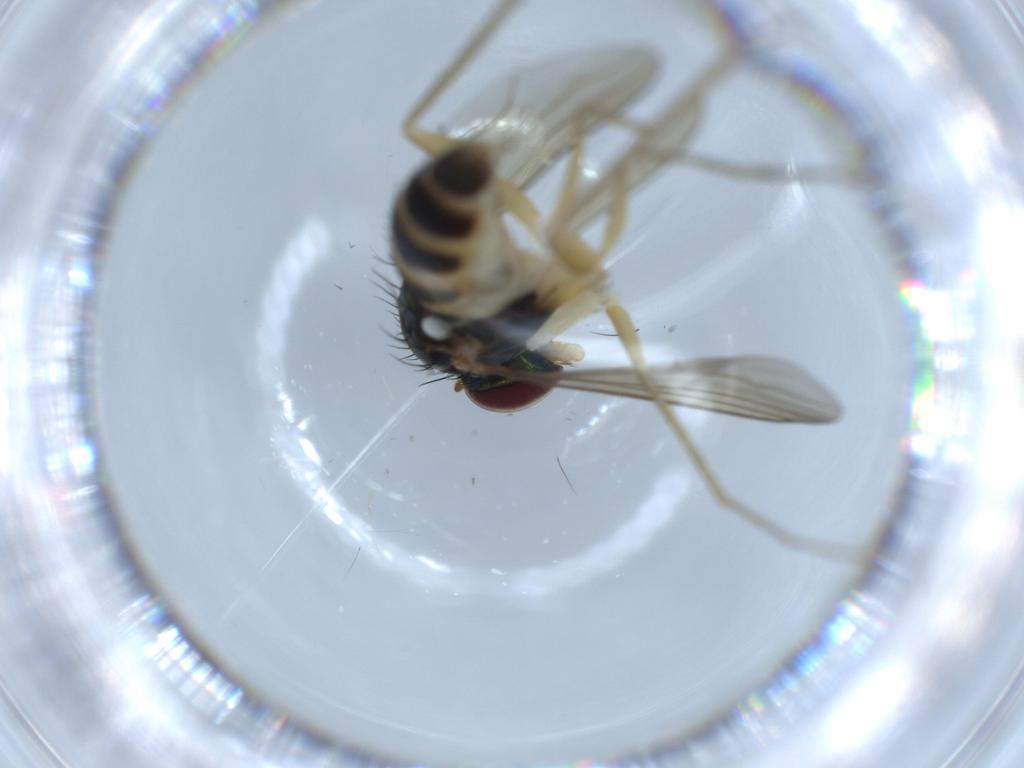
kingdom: Animalia
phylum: Arthropoda
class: Insecta
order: Diptera
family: Dolichopodidae
